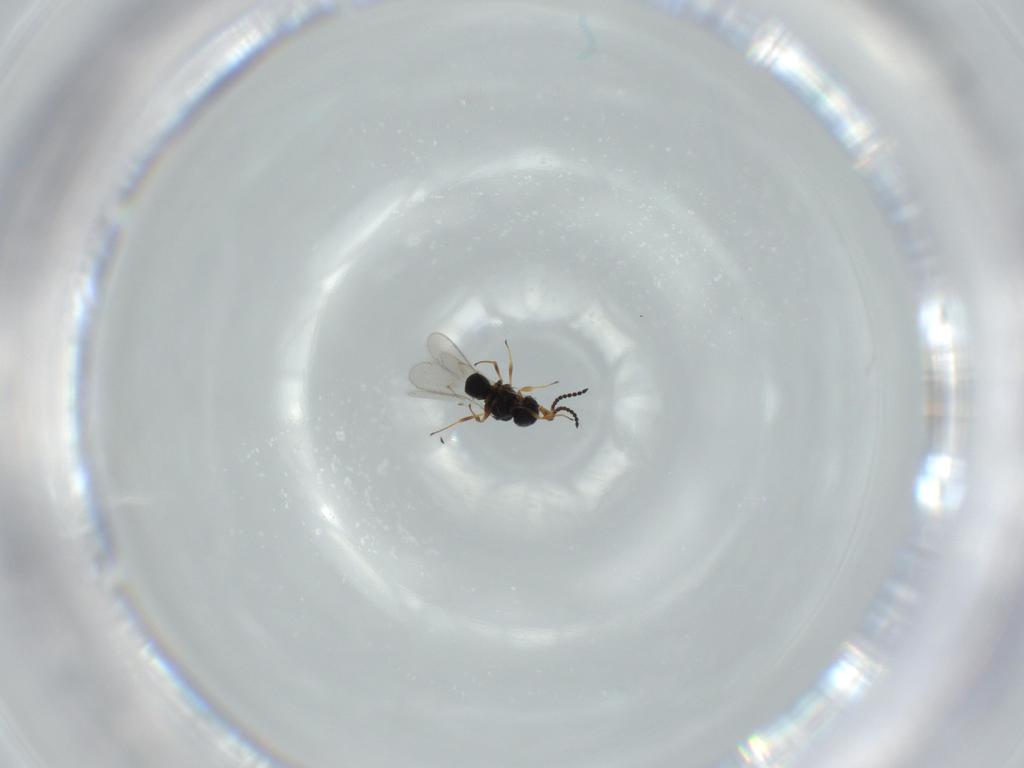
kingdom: Animalia
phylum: Arthropoda
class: Insecta
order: Hymenoptera
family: Scelionidae
